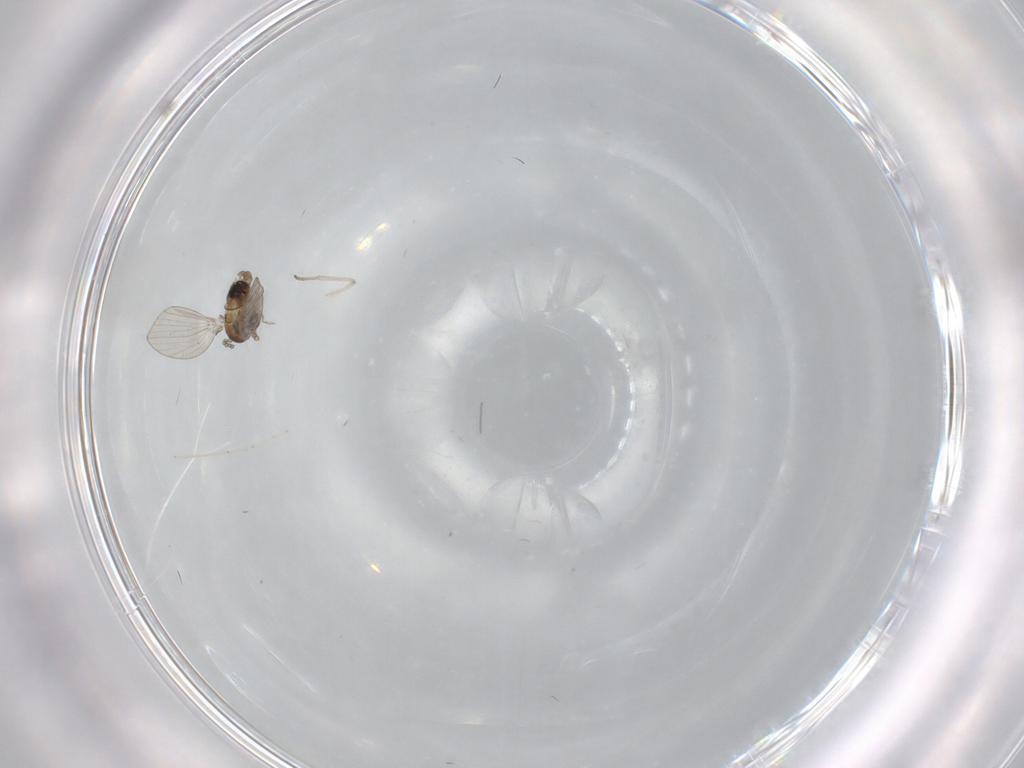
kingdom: Animalia
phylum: Arthropoda
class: Insecta
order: Diptera
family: Psychodidae
